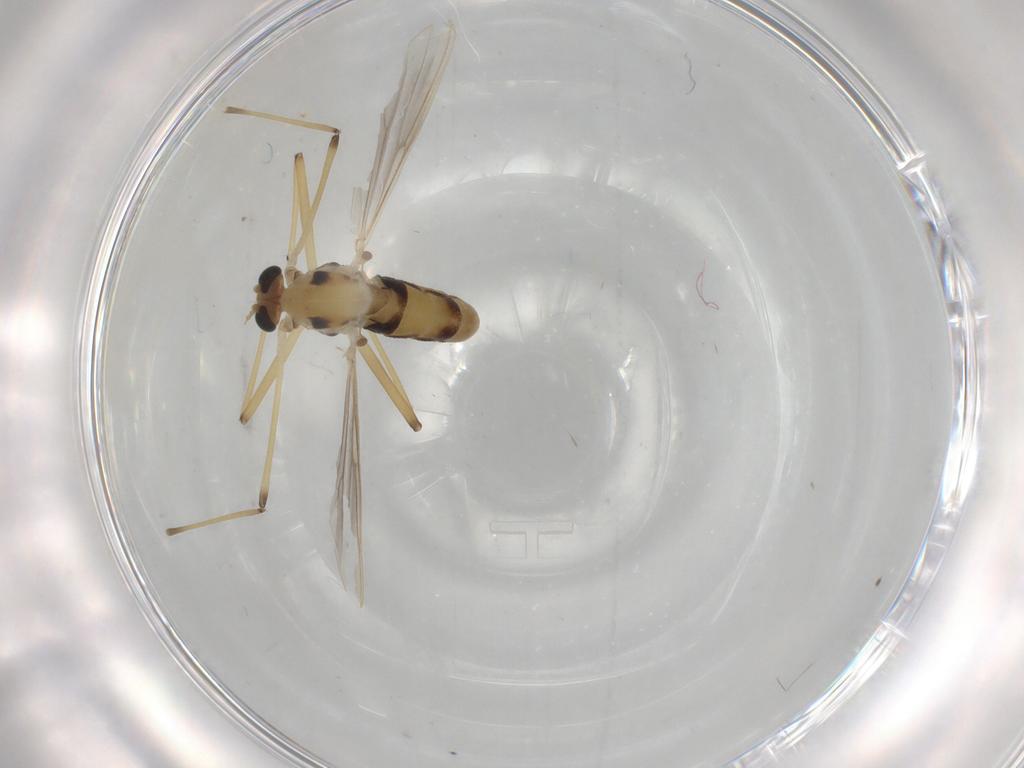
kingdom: Animalia
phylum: Arthropoda
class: Insecta
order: Diptera
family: Chironomidae
